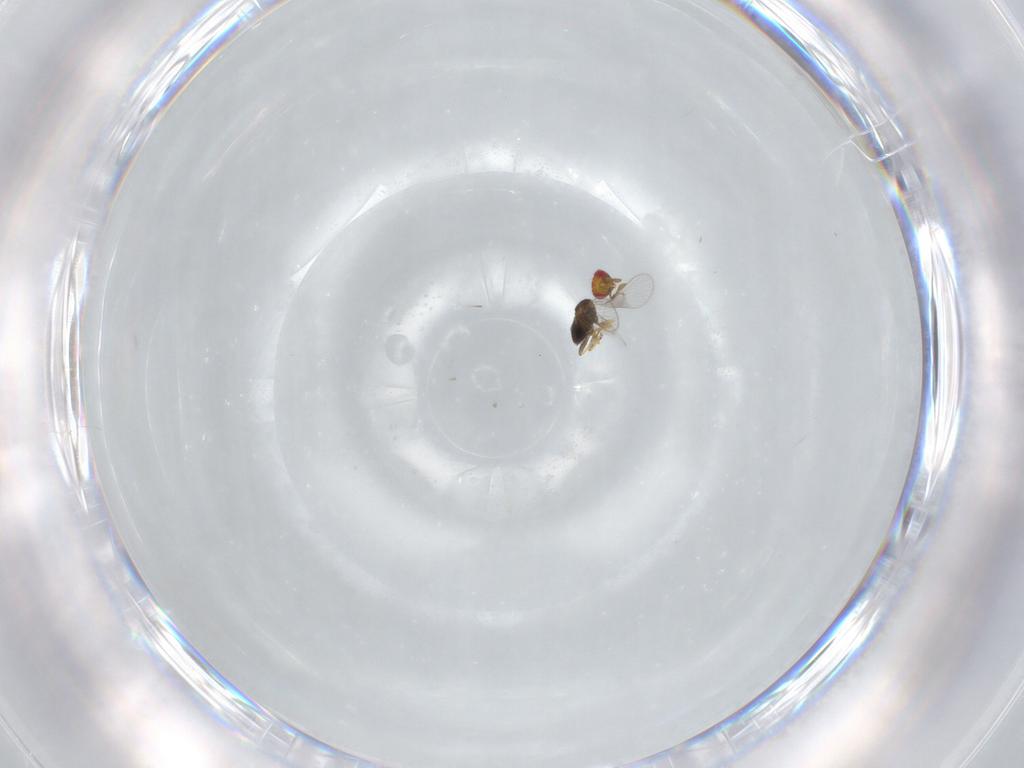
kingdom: Animalia
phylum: Arthropoda
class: Insecta
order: Hymenoptera
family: Trichogrammatidae
